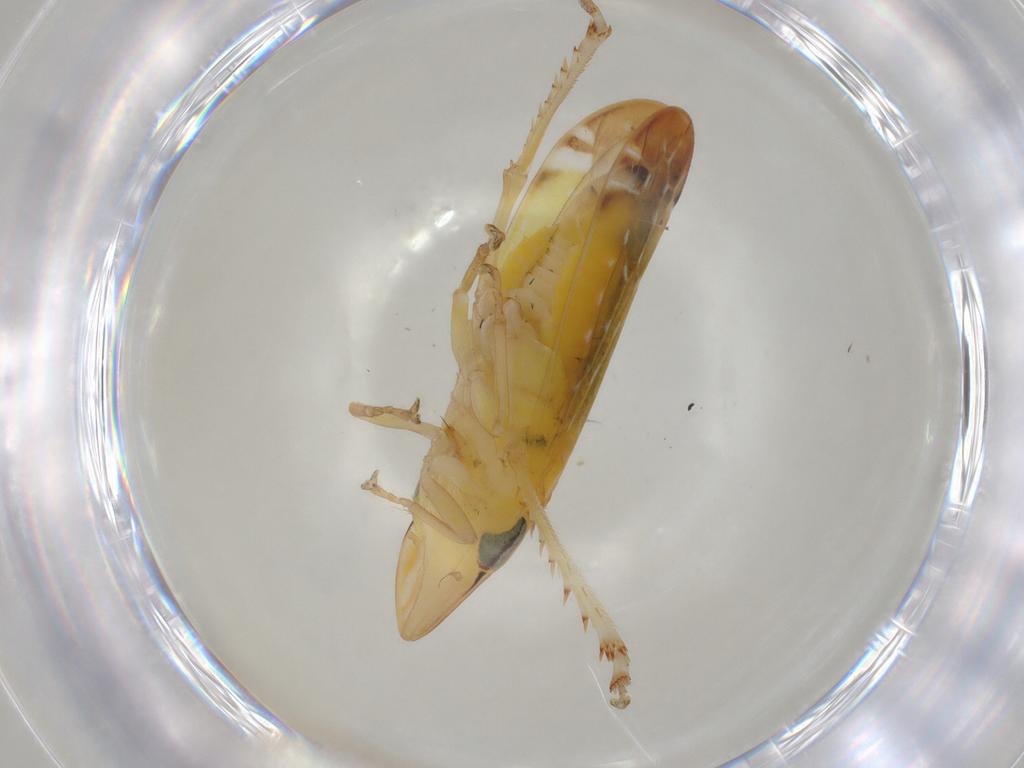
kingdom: Animalia
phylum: Arthropoda
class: Insecta
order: Hemiptera
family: Cicadellidae
